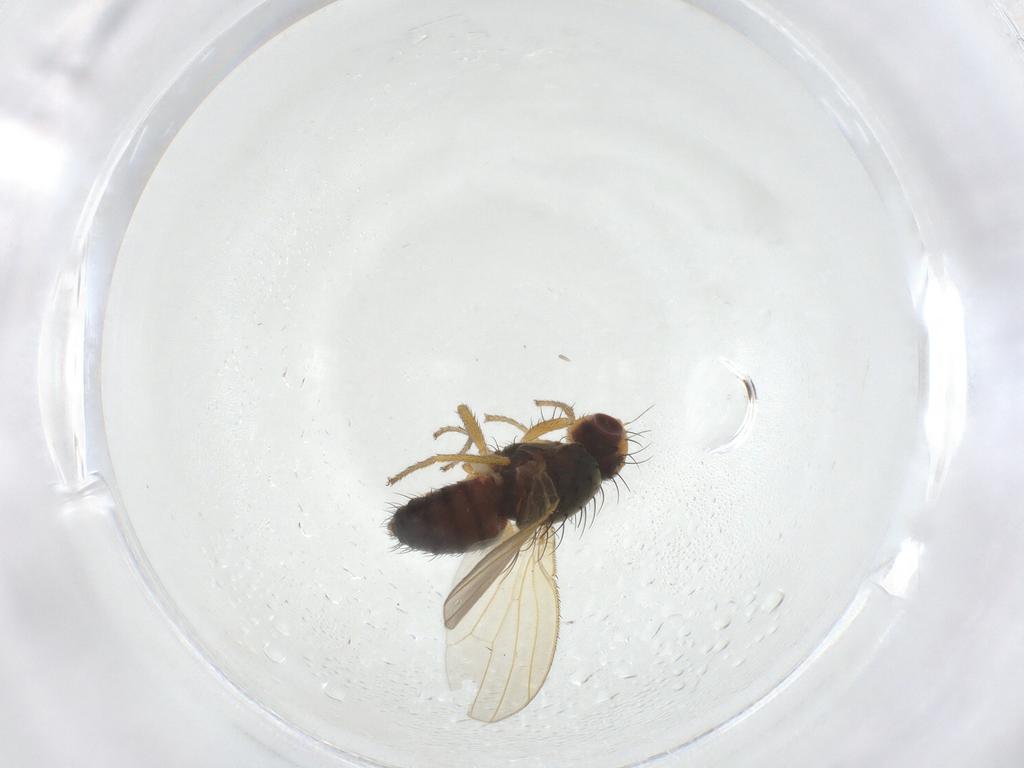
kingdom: Animalia
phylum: Arthropoda
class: Insecta
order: Diptera
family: Heleomyzidae
